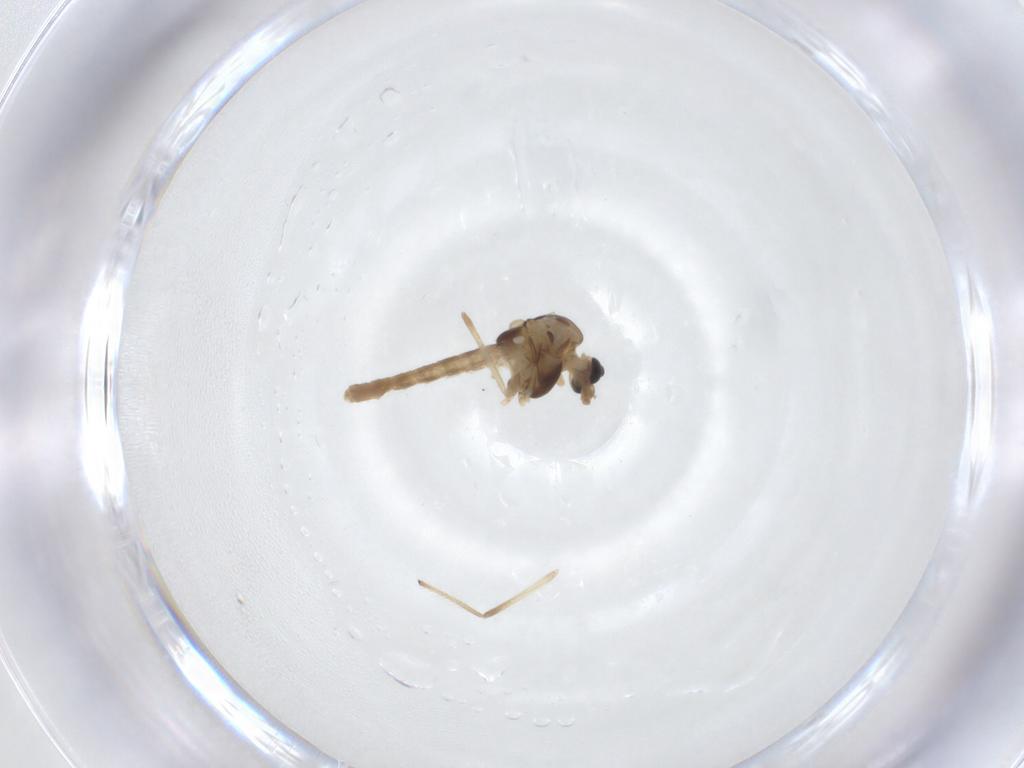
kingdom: Animalia
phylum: Arthropoda
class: Insecta
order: Diptera
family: Chironomidae
